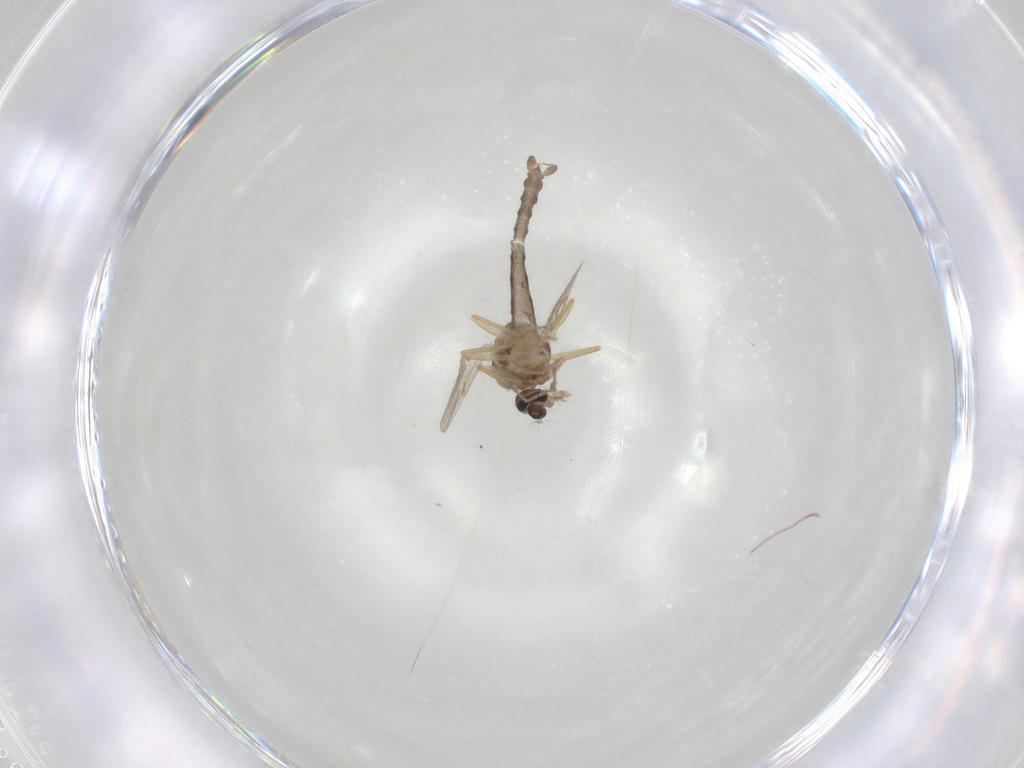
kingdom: Animalia
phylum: Arthropoda
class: Insecta
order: Diptera
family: Ceratopogonidae
